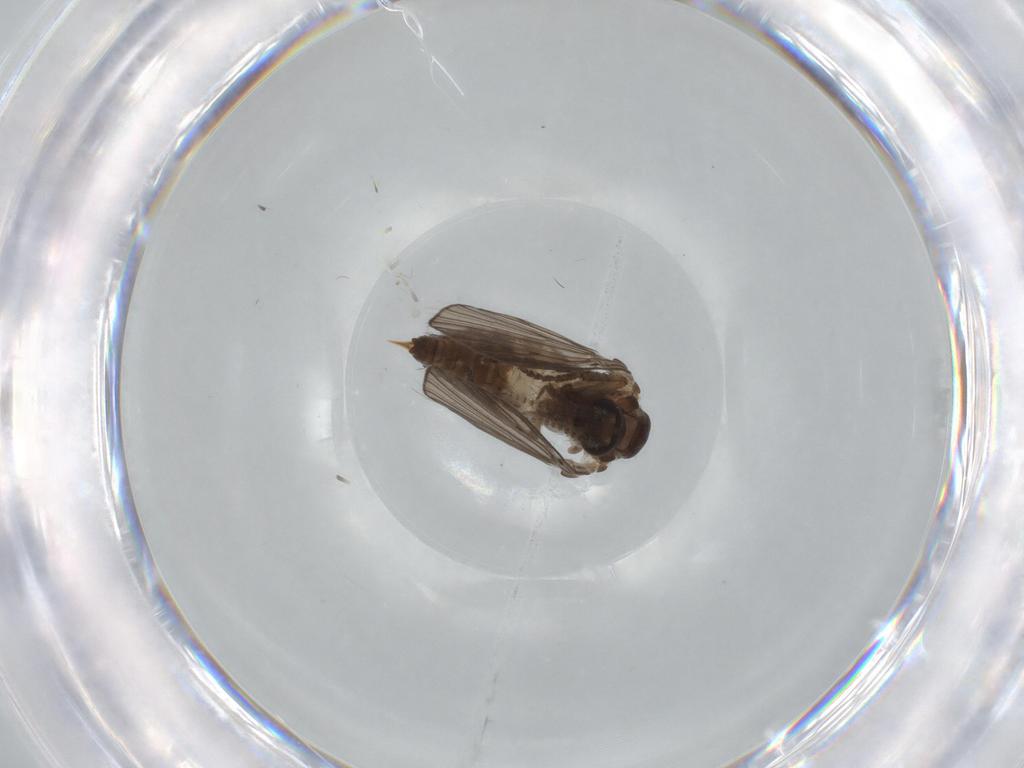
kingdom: Animalia
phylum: Arthropoda
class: Insecta
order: Diptera
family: Psychodidae
